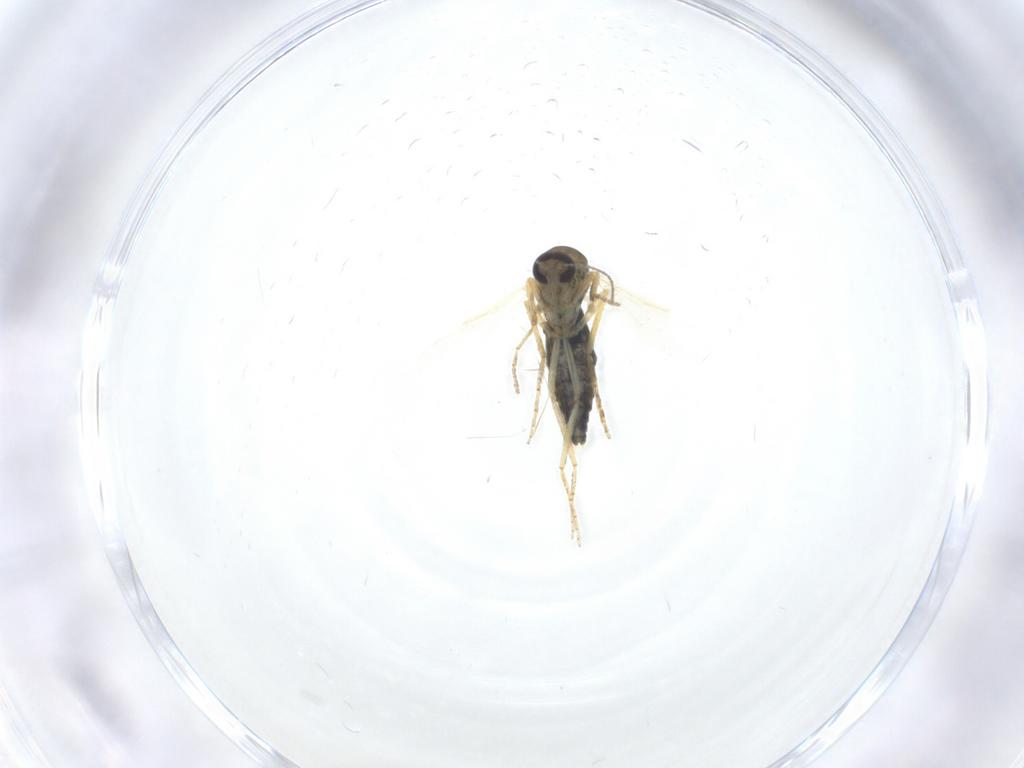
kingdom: Animalia
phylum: Arthropoda
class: Insecta
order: Diptera
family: Ceratopogonidae
